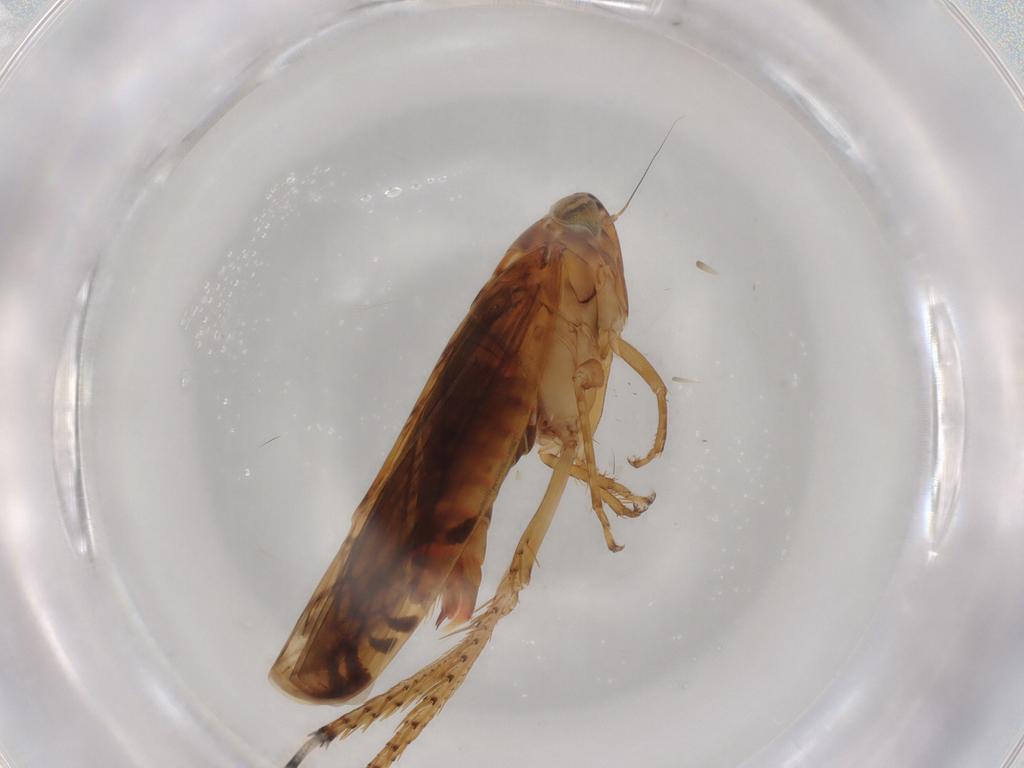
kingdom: Animalia
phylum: Arthropoda
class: Insecta
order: Hemiptera
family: Cicadellidae
